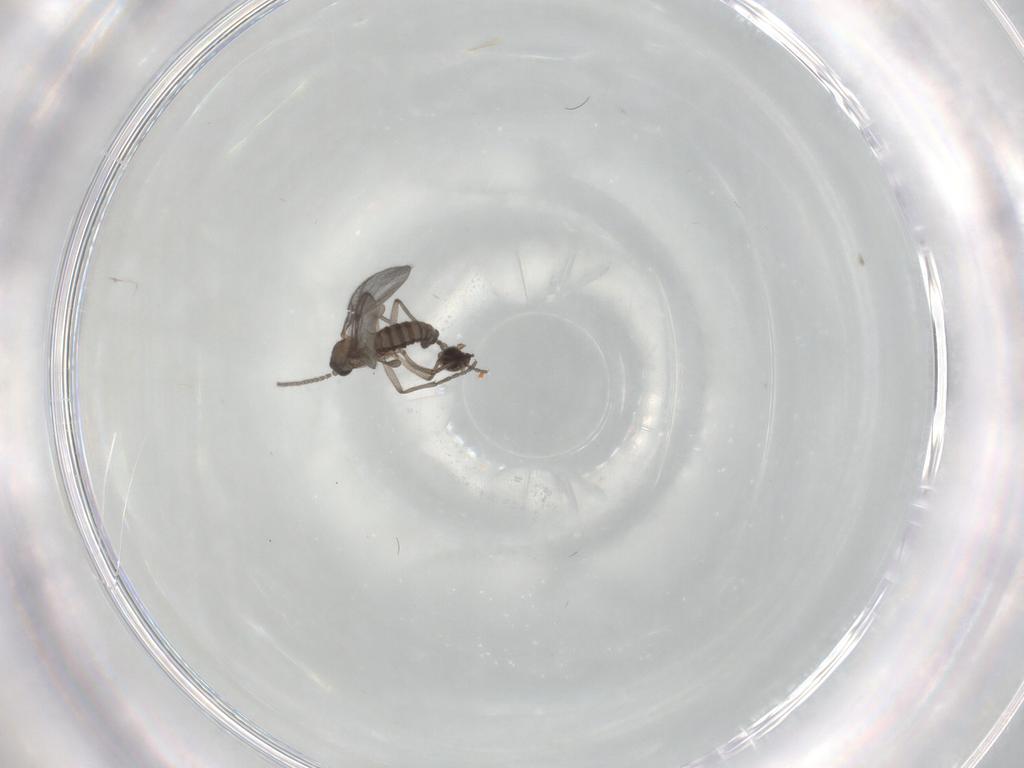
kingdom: Animalia
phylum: Arthropoda
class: Insecta
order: Diptera
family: Sciaridae
